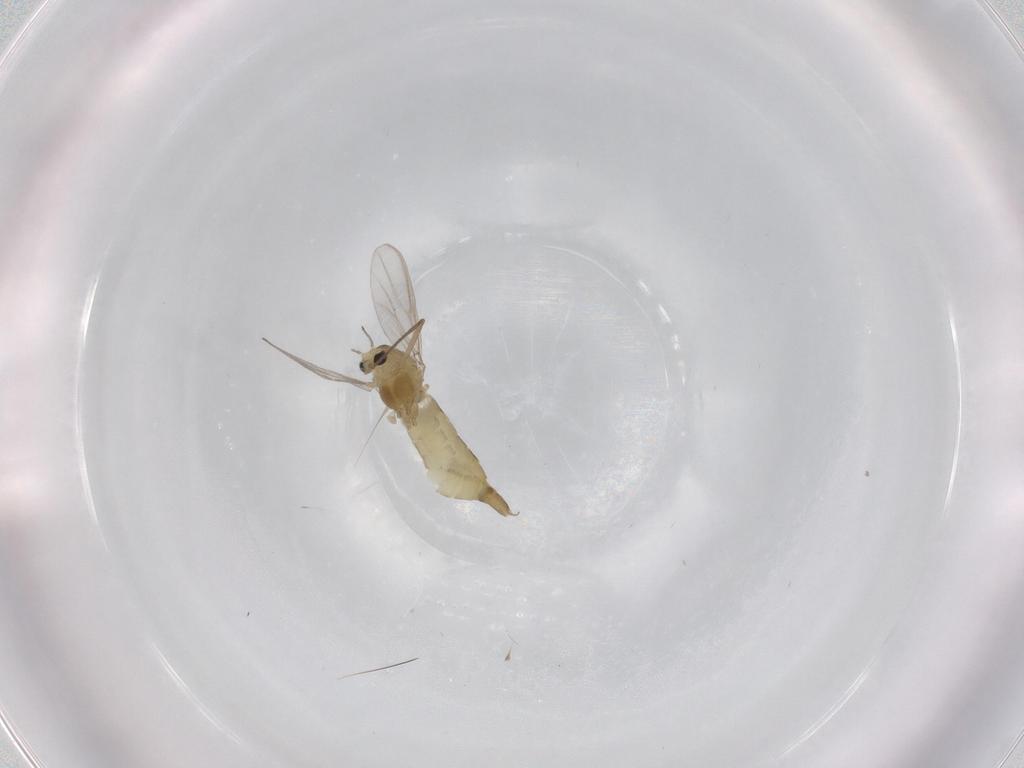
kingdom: Animalia
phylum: Arthropoda
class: Insecta
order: Diptera
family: Chironomidae
